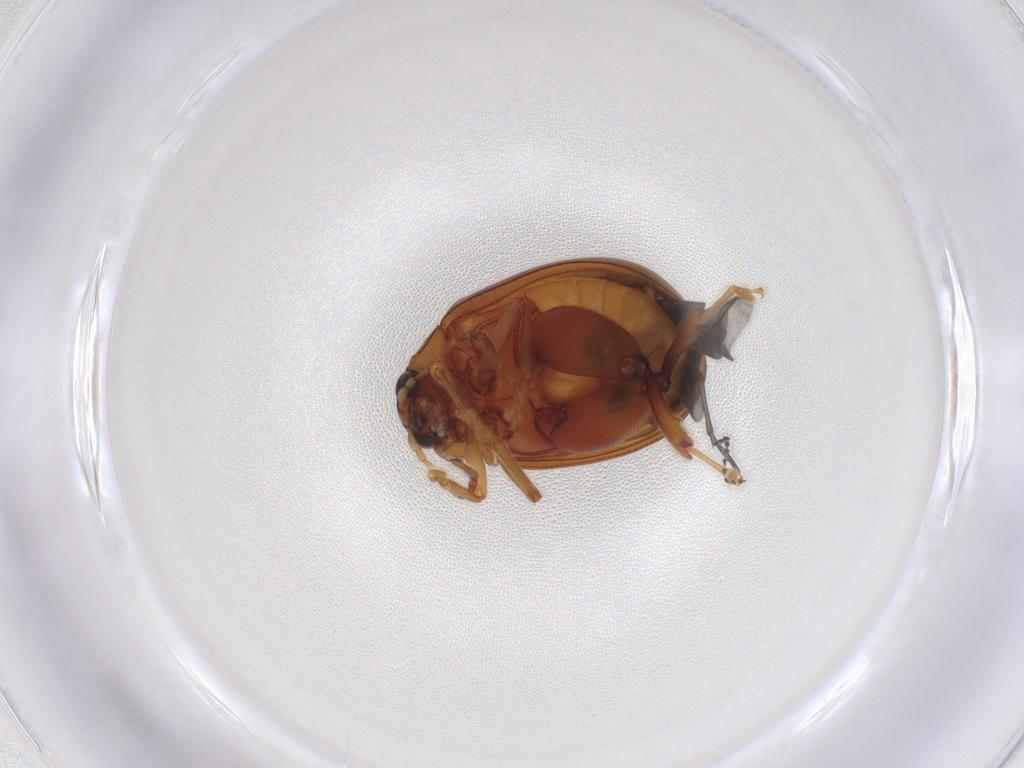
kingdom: Animalia
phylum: Arthropoda
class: Insecta
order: Coleoptera
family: Chrysomelidae
